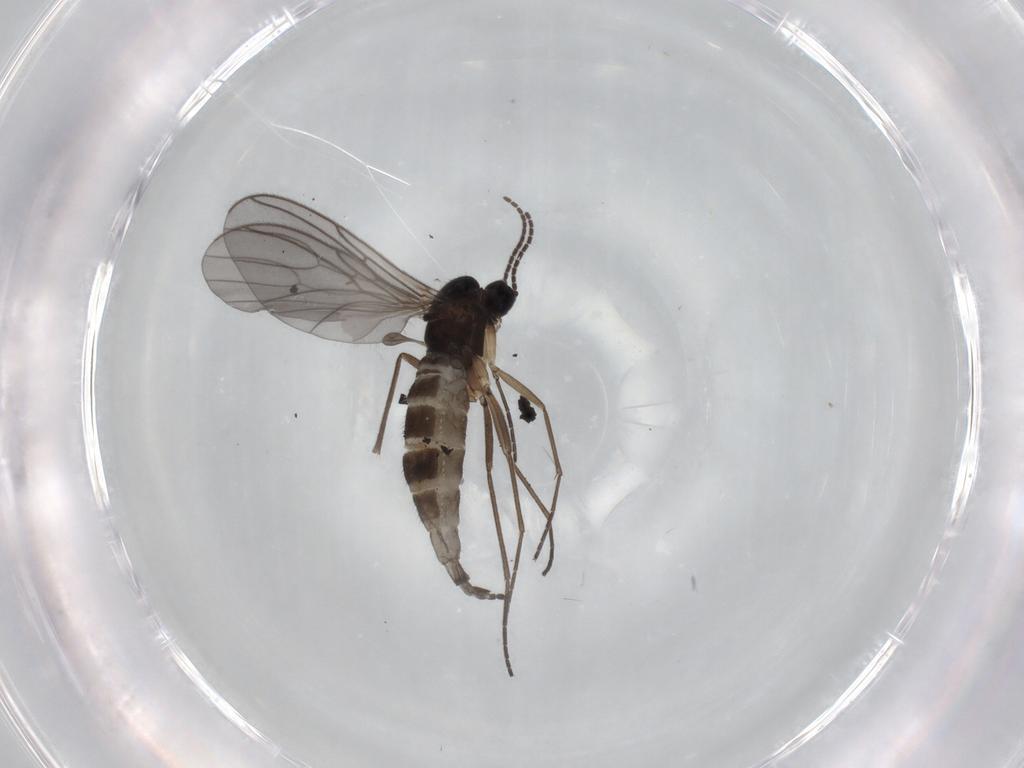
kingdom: Animalia
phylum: Arthropoda
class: Insecta
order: Diptera
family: Sciaridae
